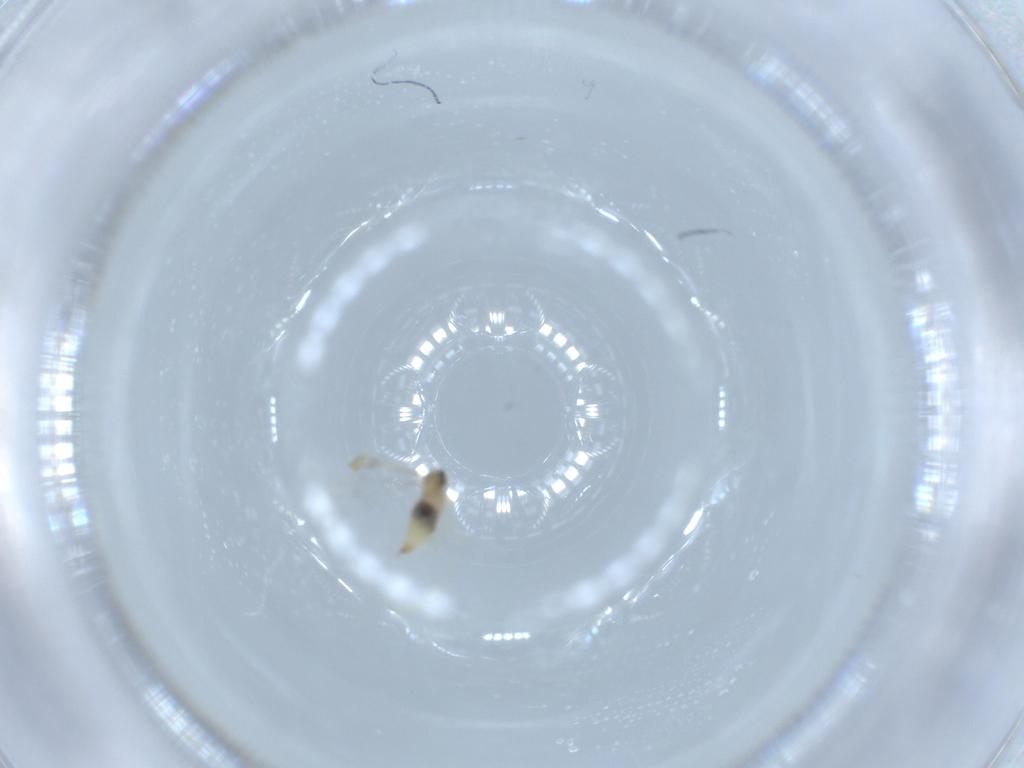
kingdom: Animalia
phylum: Arthropoda
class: Insecta
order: Diptera
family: Cecidomyiidae
